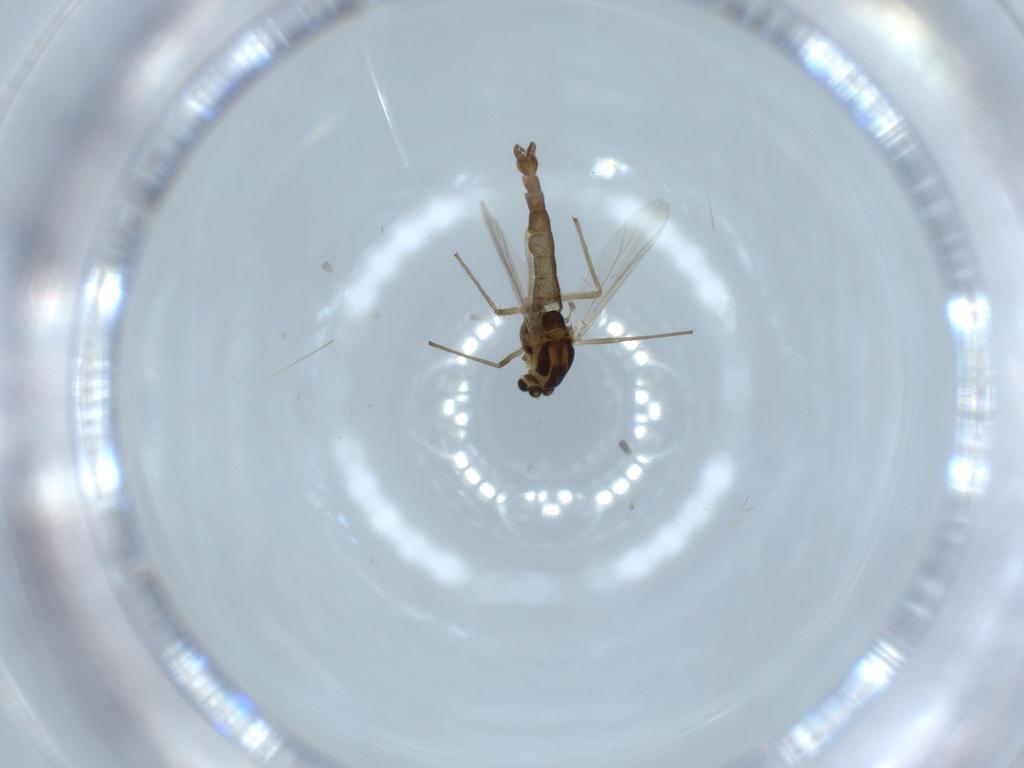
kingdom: Animalia
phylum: Arthropoda
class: Insecta
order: Diptera
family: Chironomidae
